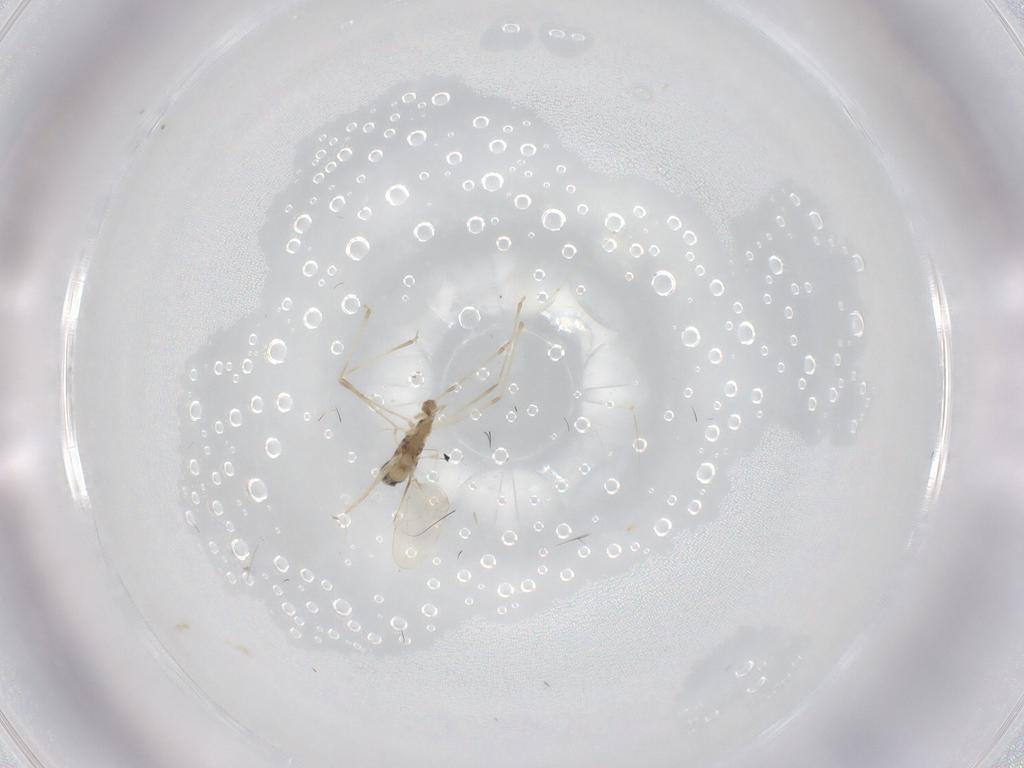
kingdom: Animalia
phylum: Arthropoda
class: Insecta
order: Diptera
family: Cecidomyiidae
